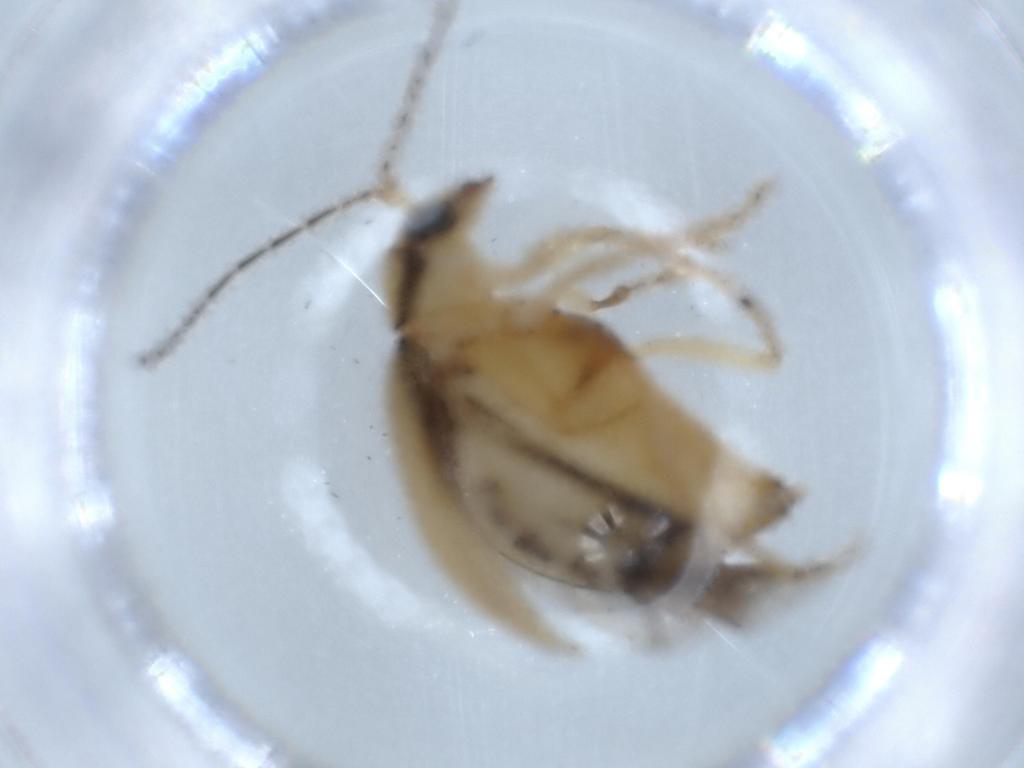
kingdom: Animalia
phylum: Arthropoda
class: Insecta
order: Coleoptera
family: Chrysomelidae
